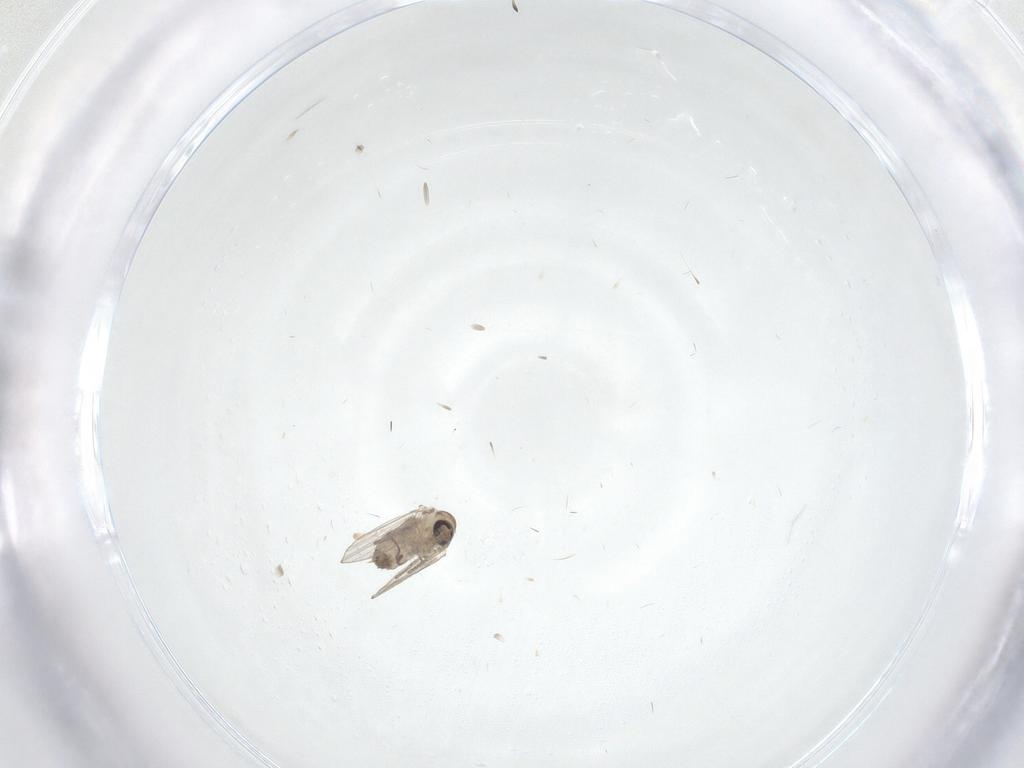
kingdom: Animalia
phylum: Arthropoda
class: Insecta
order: Diptera
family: Psychodidae
